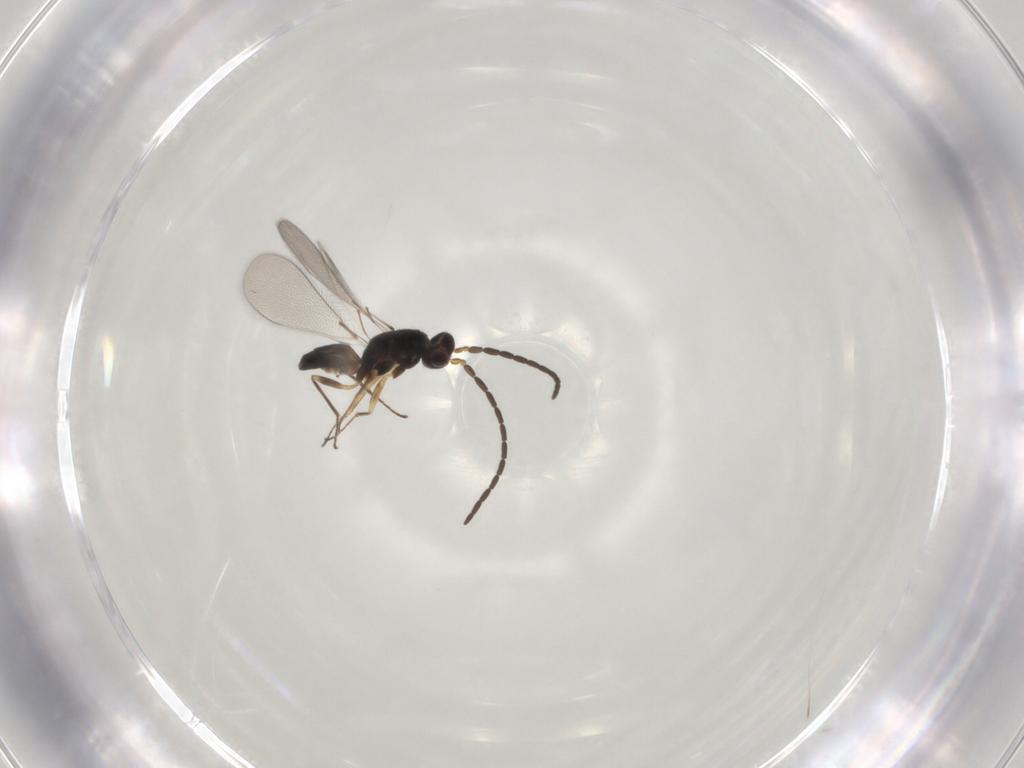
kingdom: Animalia
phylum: Arthropoda
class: Insecta
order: Hymenoptera
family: Mymaridae
